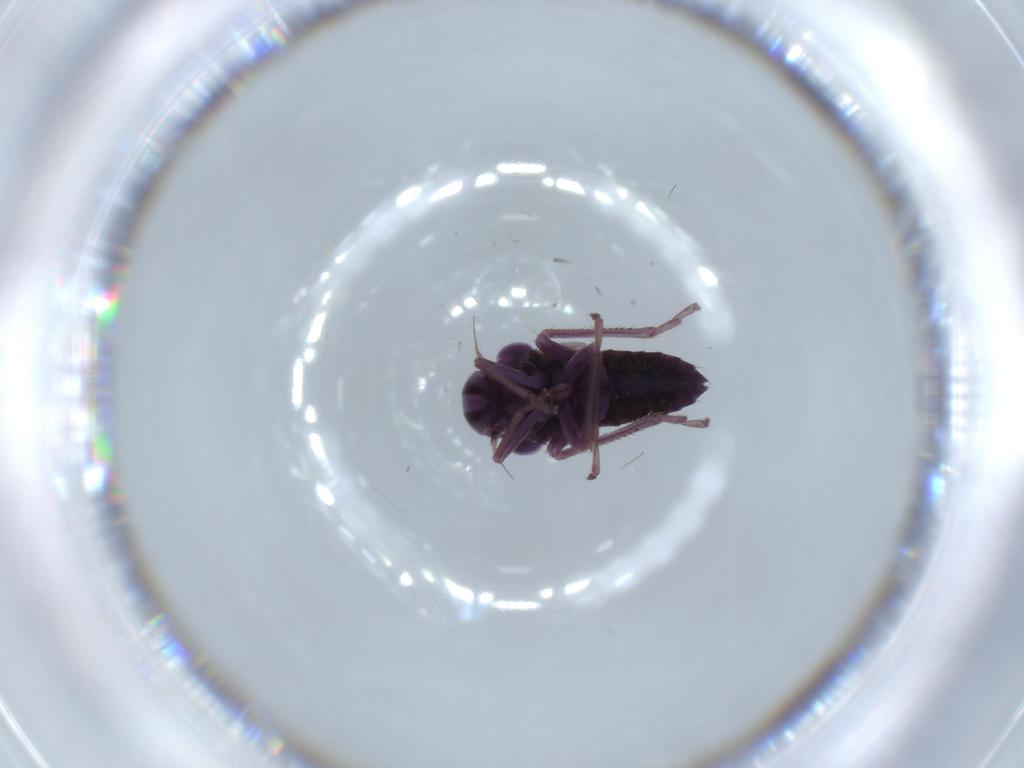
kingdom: Animalia
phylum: Arthropoda
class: Insecta
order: Hemiptera
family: Cicadellidae
